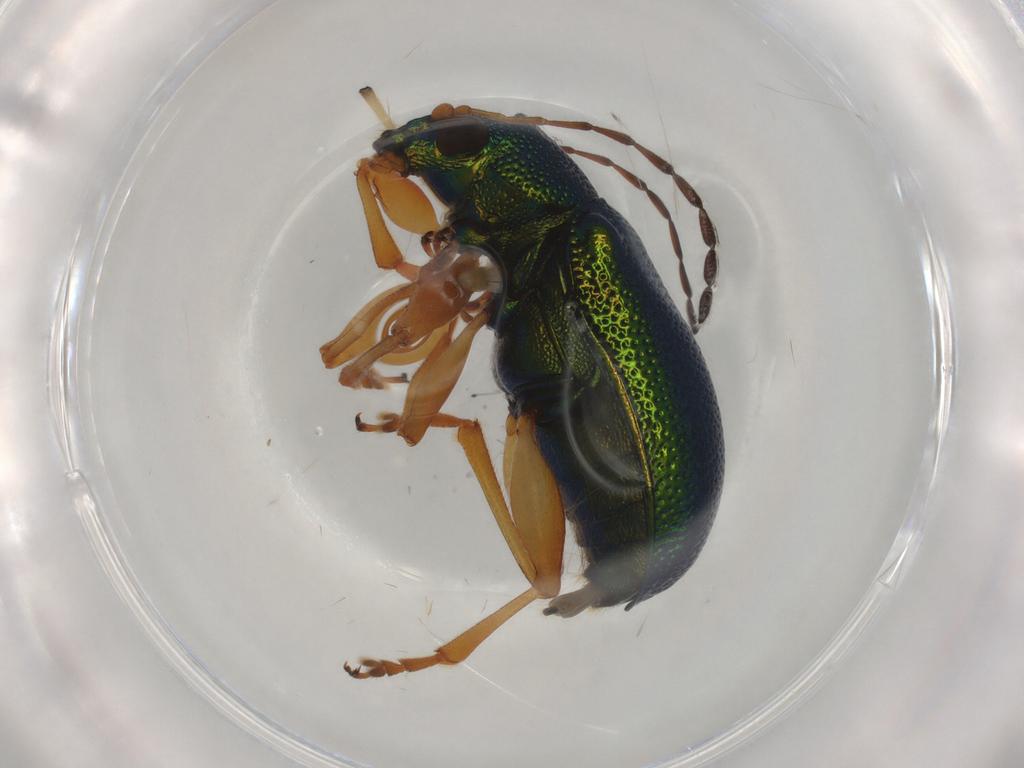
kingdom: Animalia
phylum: Arthropoda
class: Insecta
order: Coleoptera
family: Chrysomelidae
